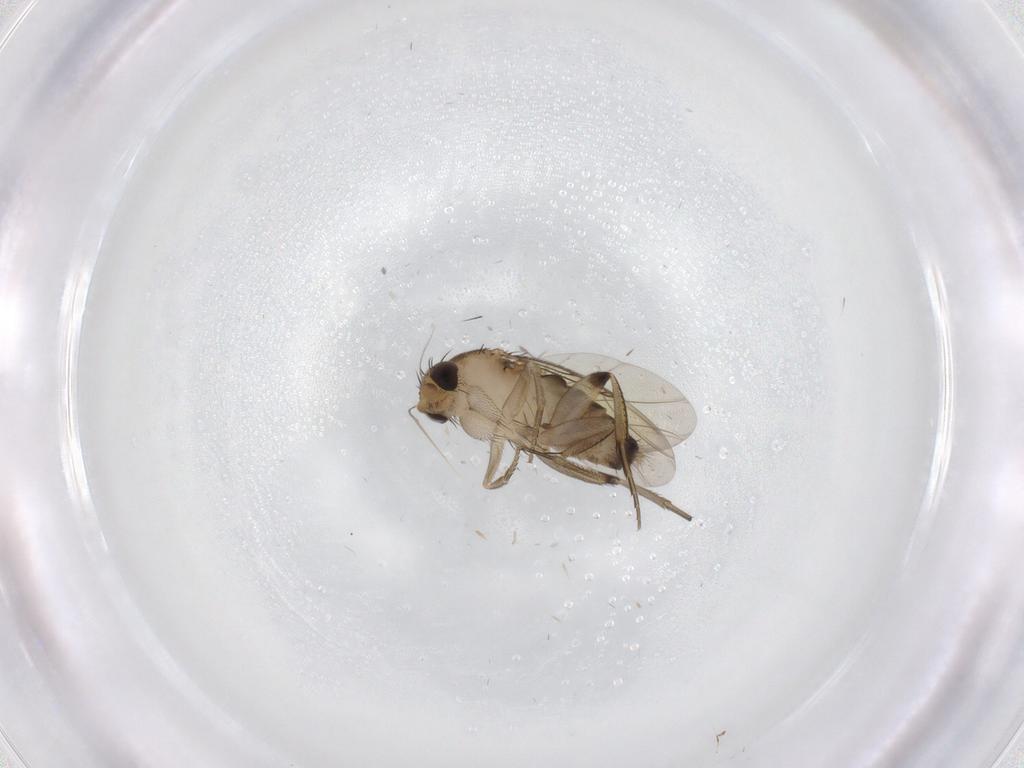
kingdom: Animalia
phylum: Arthropoda
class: Insecta
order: Diptera
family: Phoridae
